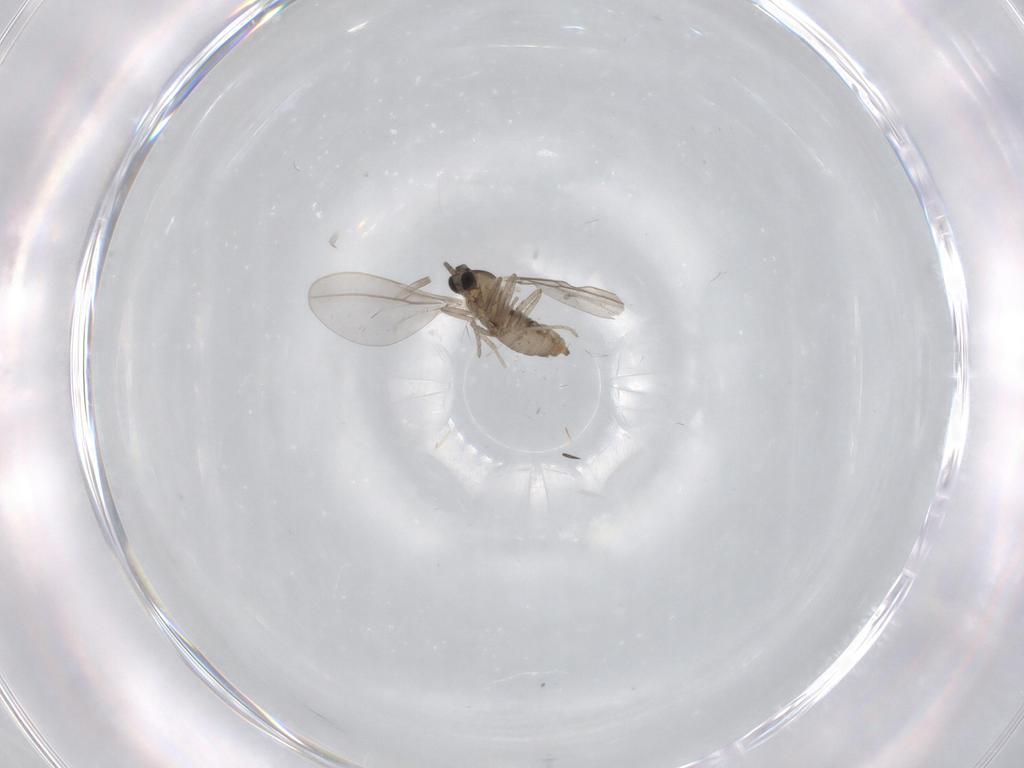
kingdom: Animalia
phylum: Arthropoda
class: Insecta
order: Diptera
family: Cecidomyiidae
